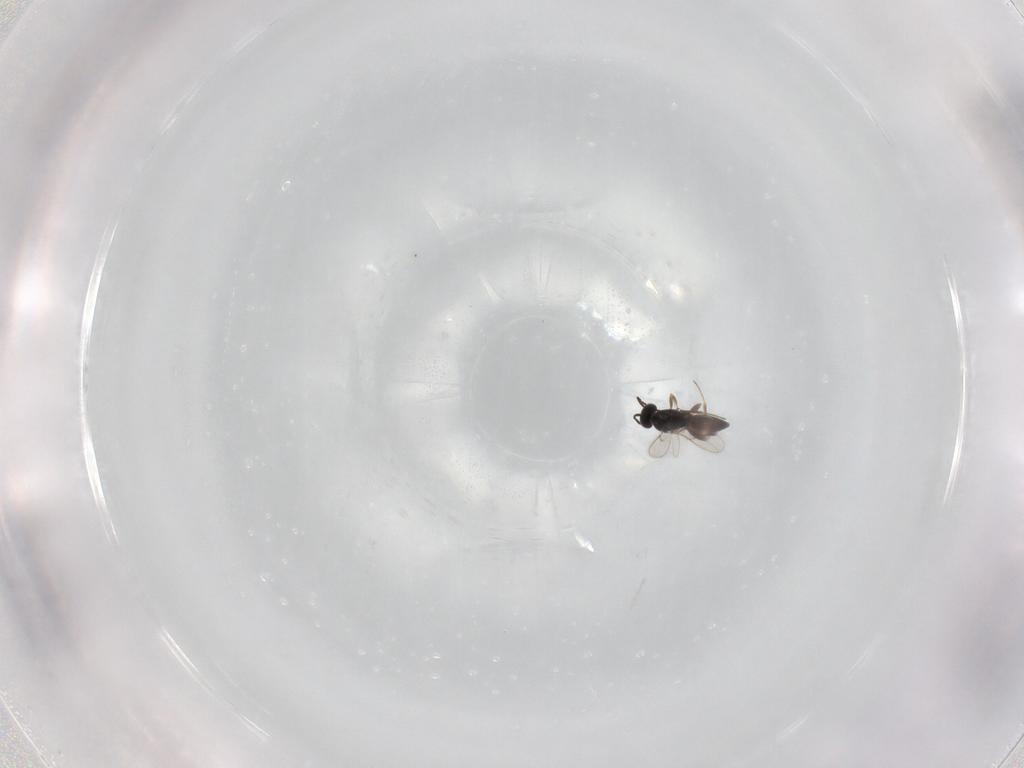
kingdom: Animalia
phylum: Arthropoda
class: Insecta
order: Hymenoptera
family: Scelionidae
